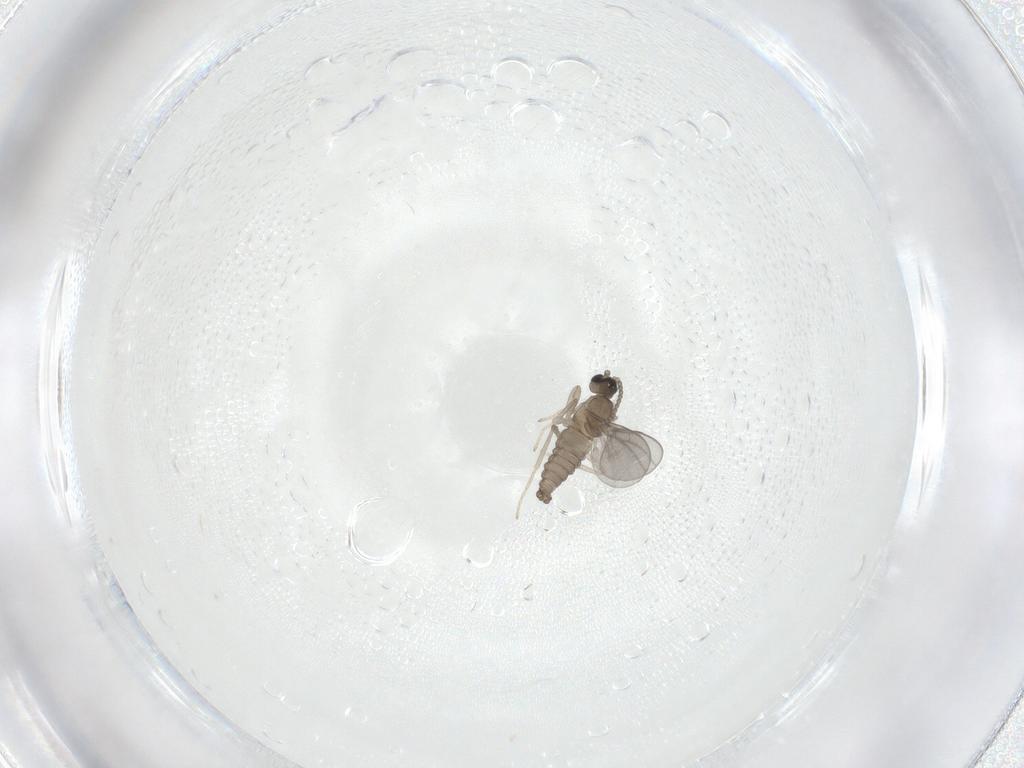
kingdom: Animalia
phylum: Arthropoda
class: Insecta
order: Diptera
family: Cecidomyiidae
